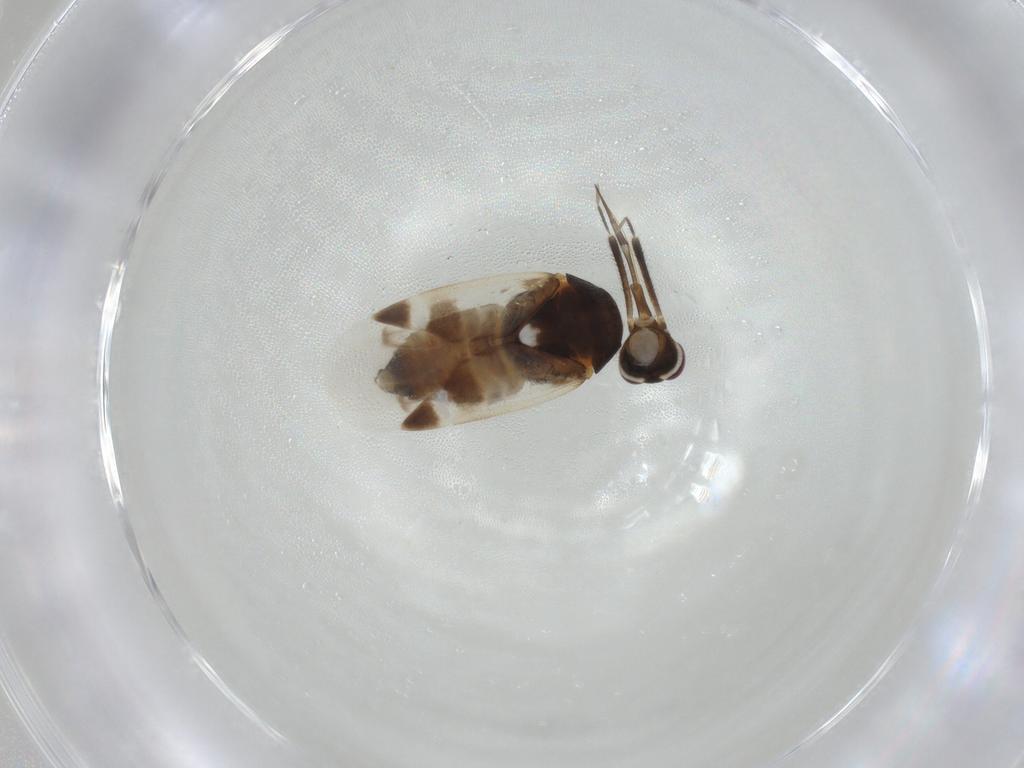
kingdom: Animalia
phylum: Arthropoda
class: Insecta
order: Hemiptera
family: Miridae
